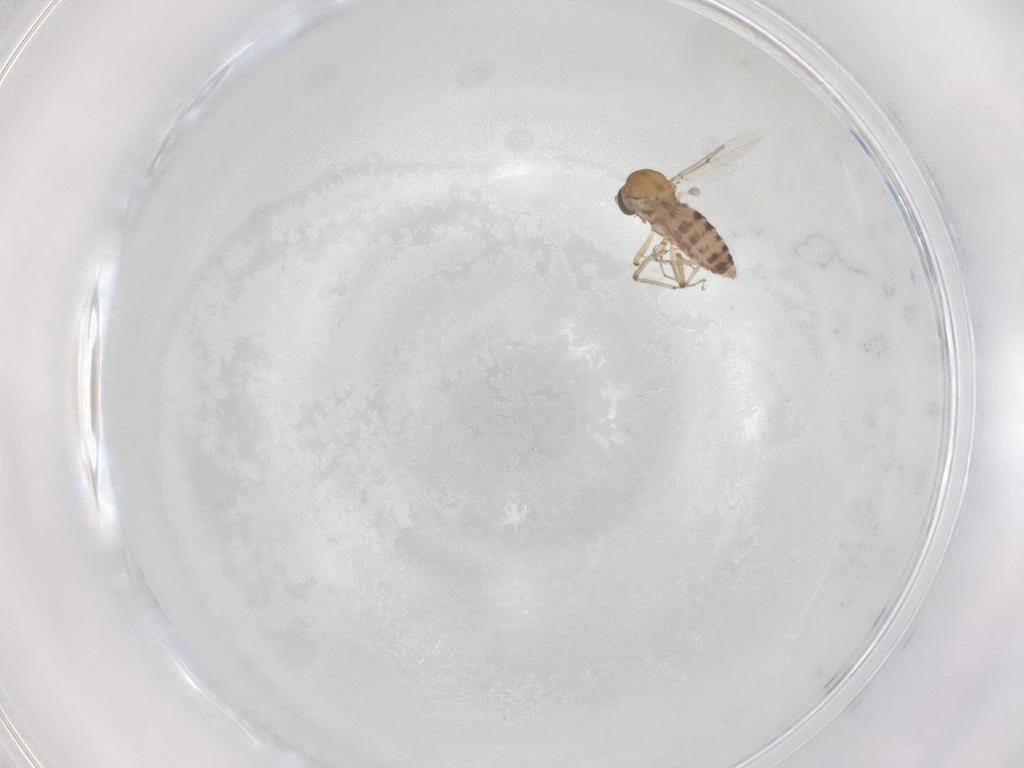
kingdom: Animalia
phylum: Arthropoda
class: Insecta
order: Diptera
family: Ceratopogonidae
